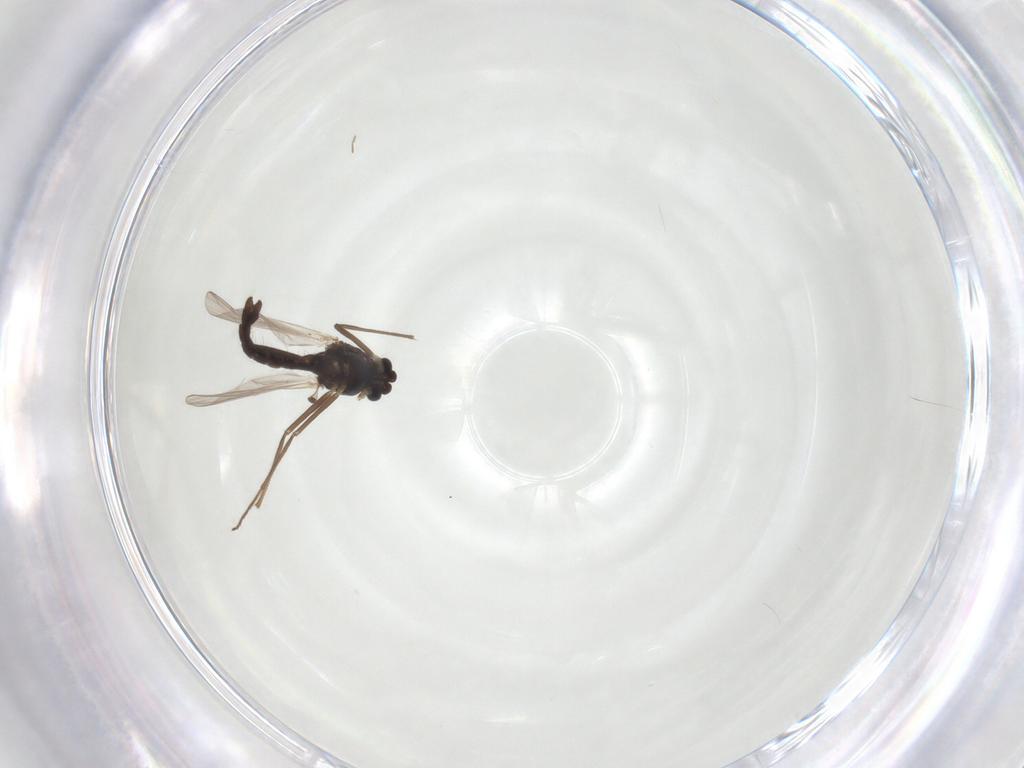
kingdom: Animalia
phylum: Arthropoda
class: Insecta
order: Diptera
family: Chironomidae
